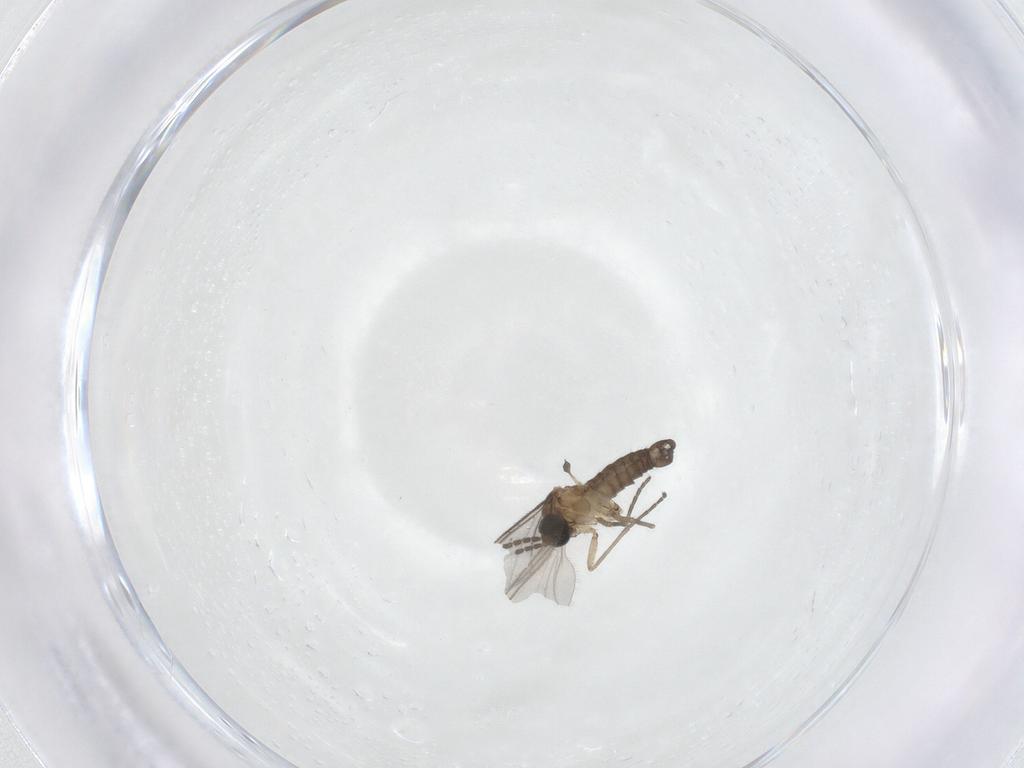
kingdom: Animalia
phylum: Arthropoda
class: Insecta
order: Diptera
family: Sciaridae
